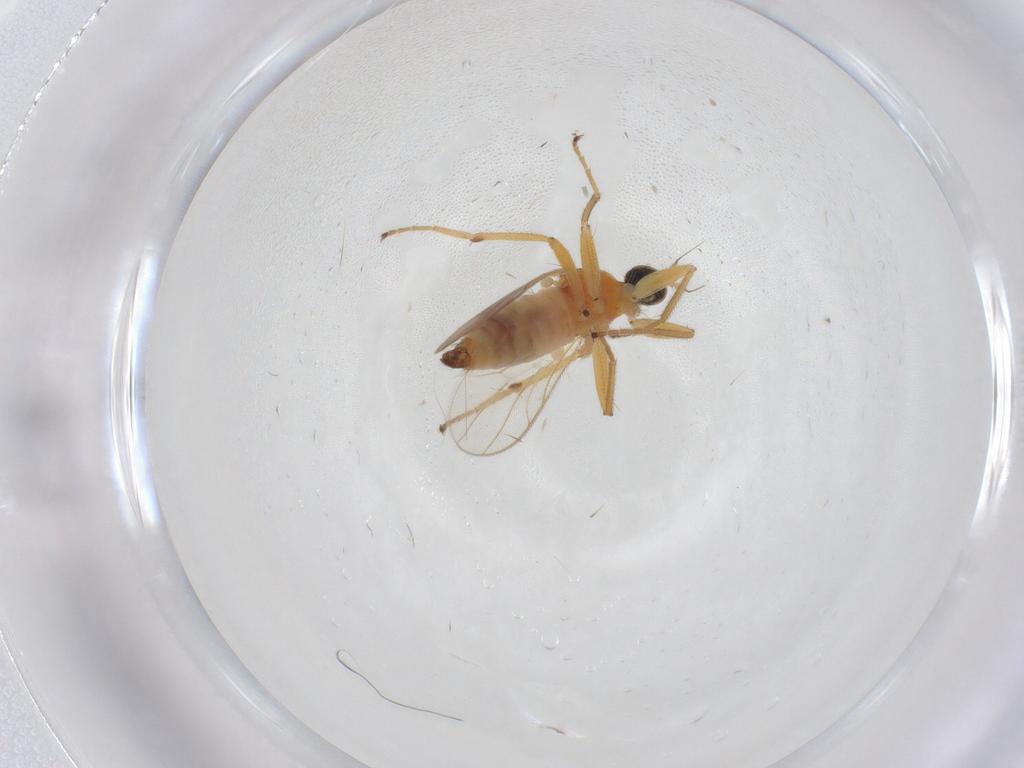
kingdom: Animalia
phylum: Arthropoda
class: Insecta
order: Diptera
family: Hybotidae
